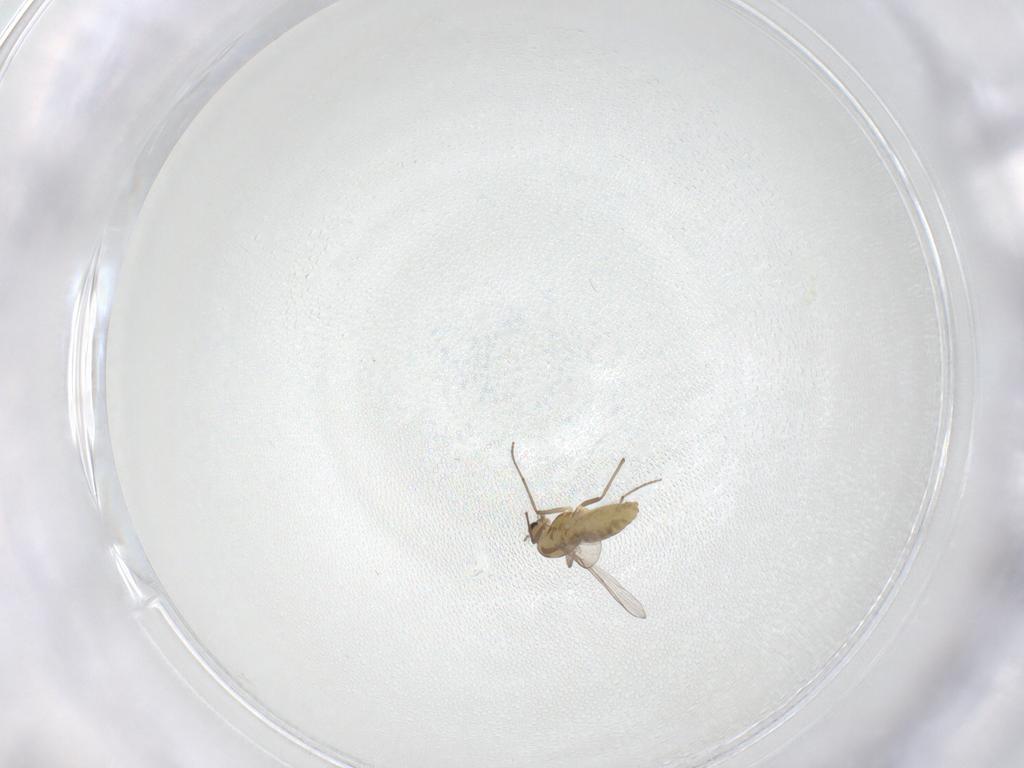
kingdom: Animalia
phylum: Arthropoda
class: Insecta
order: Diptera
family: Chironomidae
